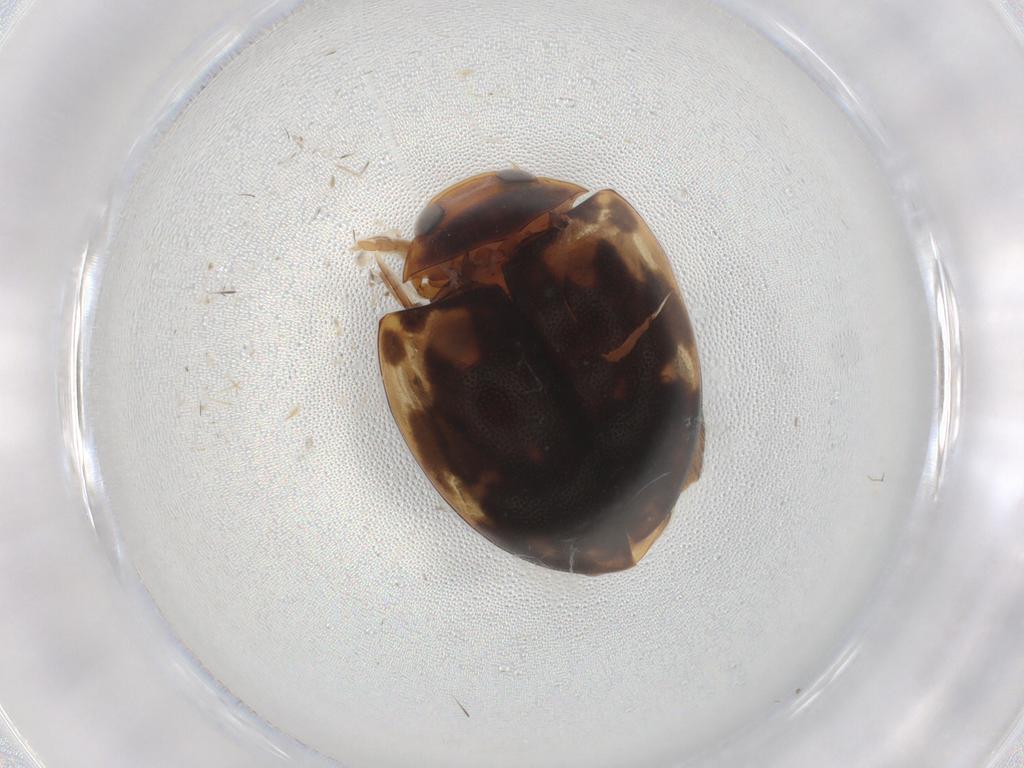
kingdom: Animalia
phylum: Arthropoda
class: Insecta
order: Coleoptera
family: Dytiscidae
